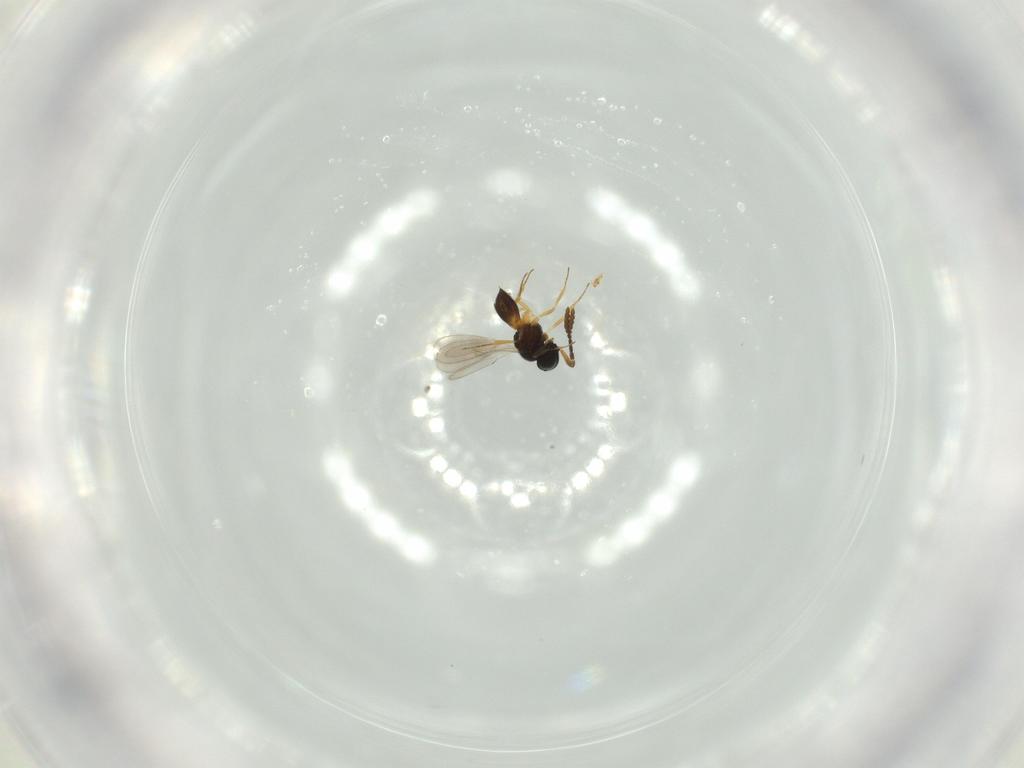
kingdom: Animalia
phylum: Arthropoda
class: Insecta
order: Hymenoptera
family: Scelionidae
